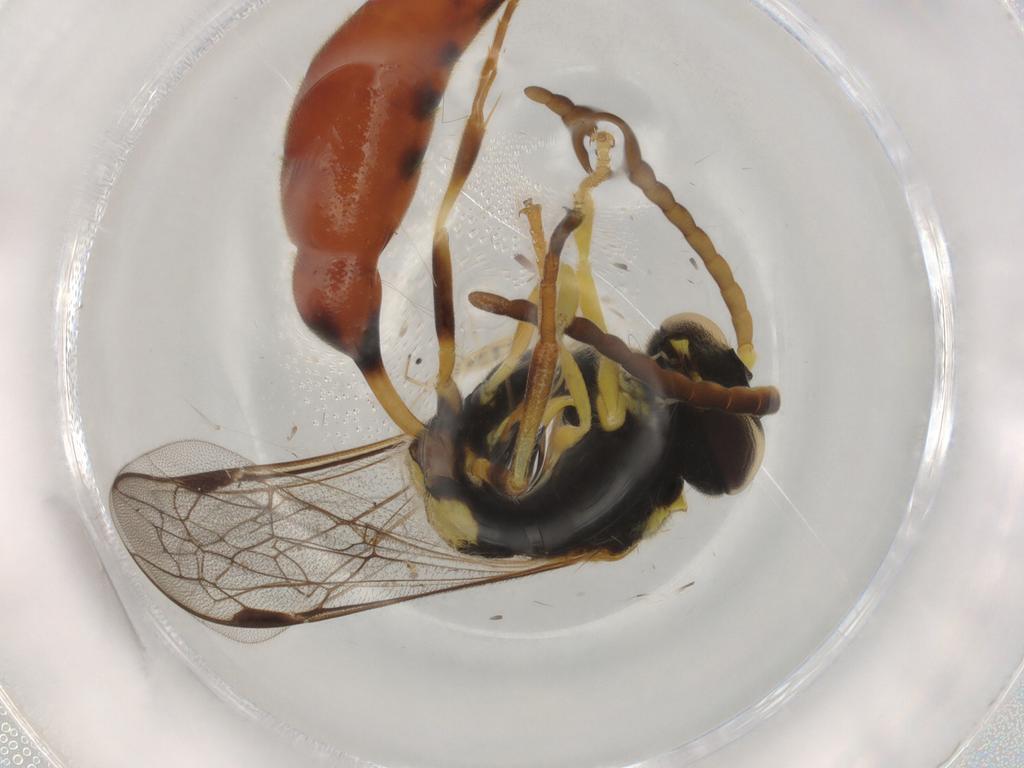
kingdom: Animalia
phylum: Arthropoda
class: Insecta
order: Hymenoptera
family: Crabronidae
